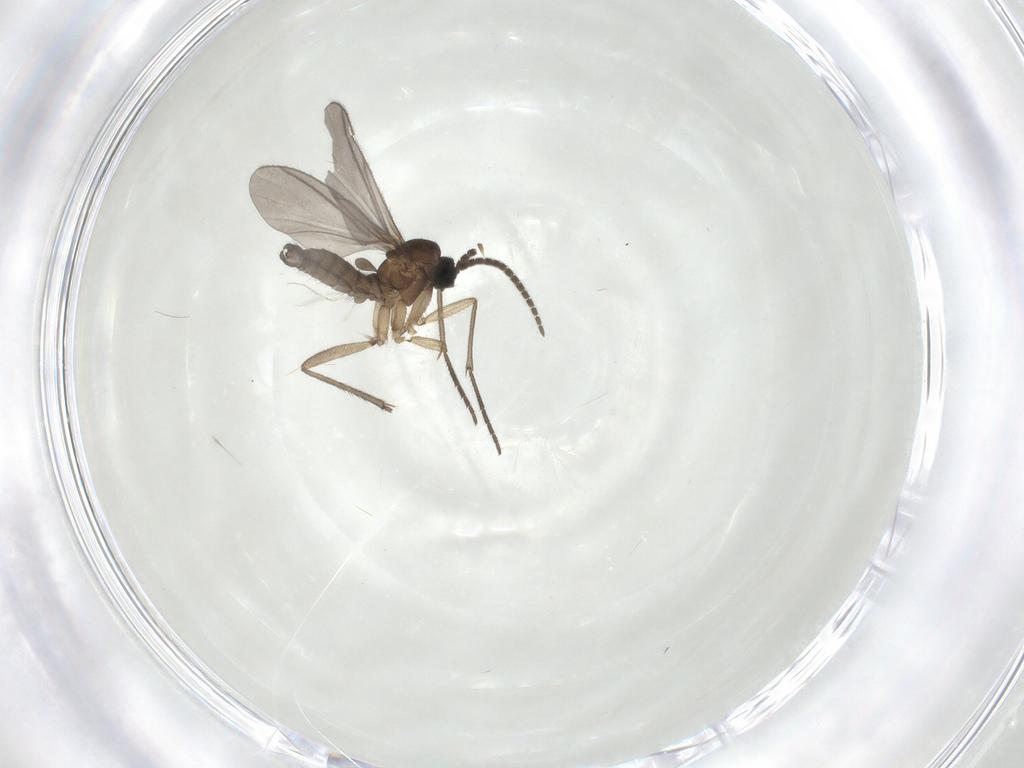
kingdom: Animalia
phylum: Arthropoda
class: Insecta
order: Diptera
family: Sciaridae
